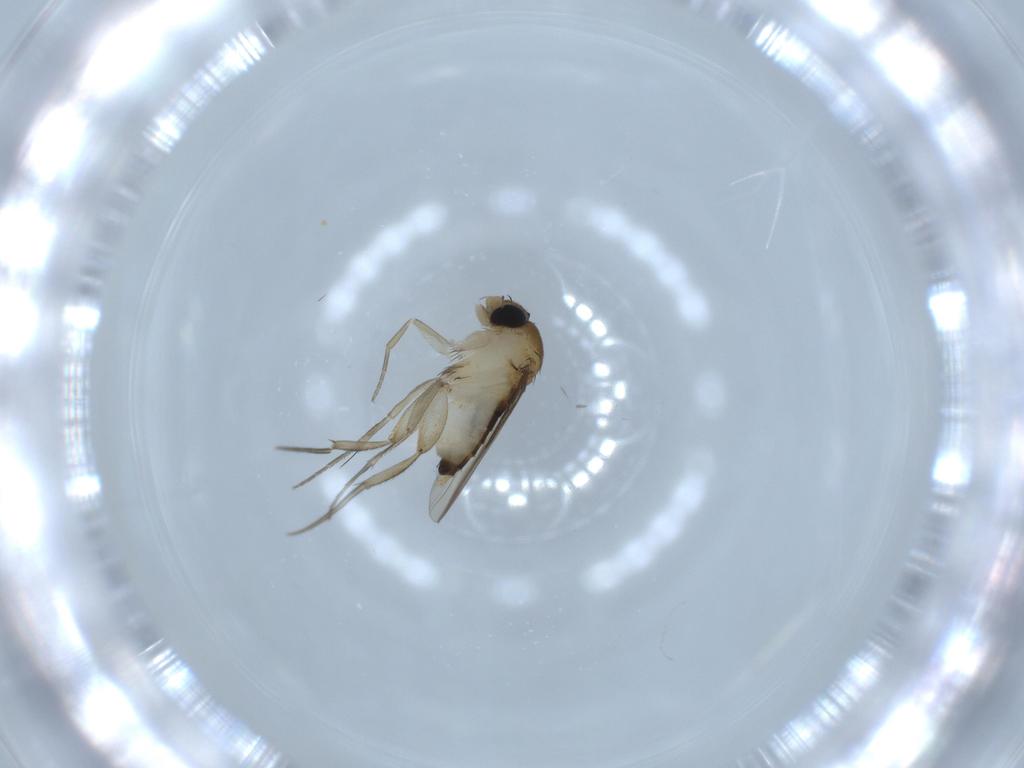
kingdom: Animalia
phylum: Arthropoda
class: Insecta
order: Diptera
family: Phoridae
